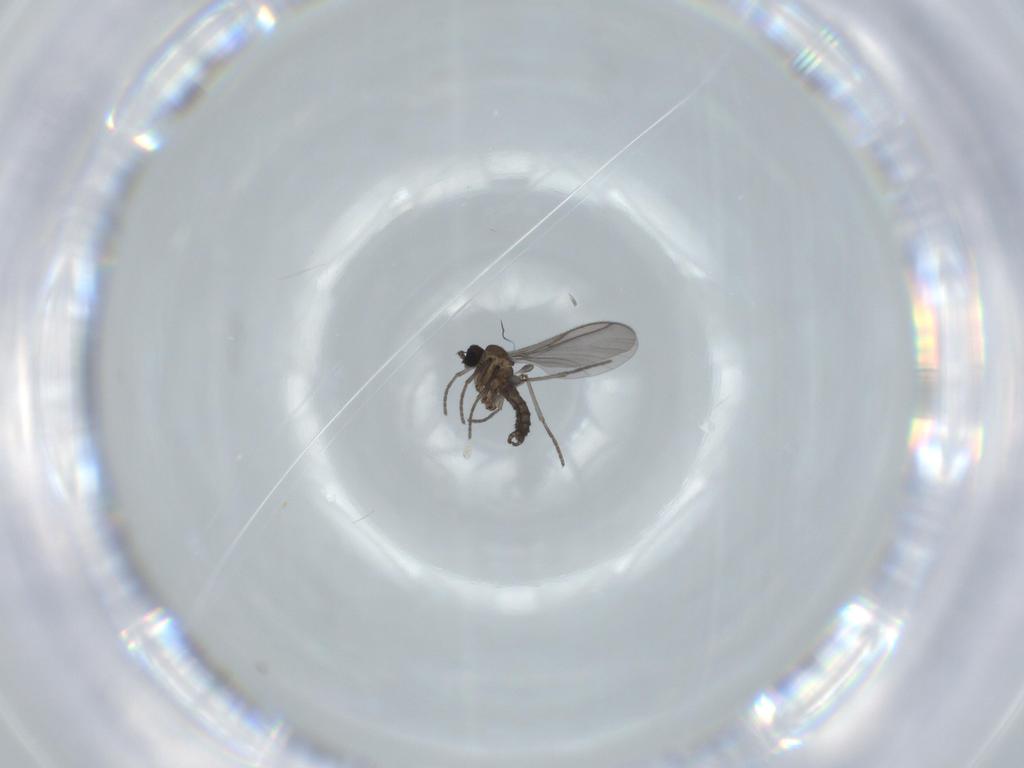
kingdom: Animalia
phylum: Arthropoda
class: Insecta
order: Diptera
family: Sciaridae
